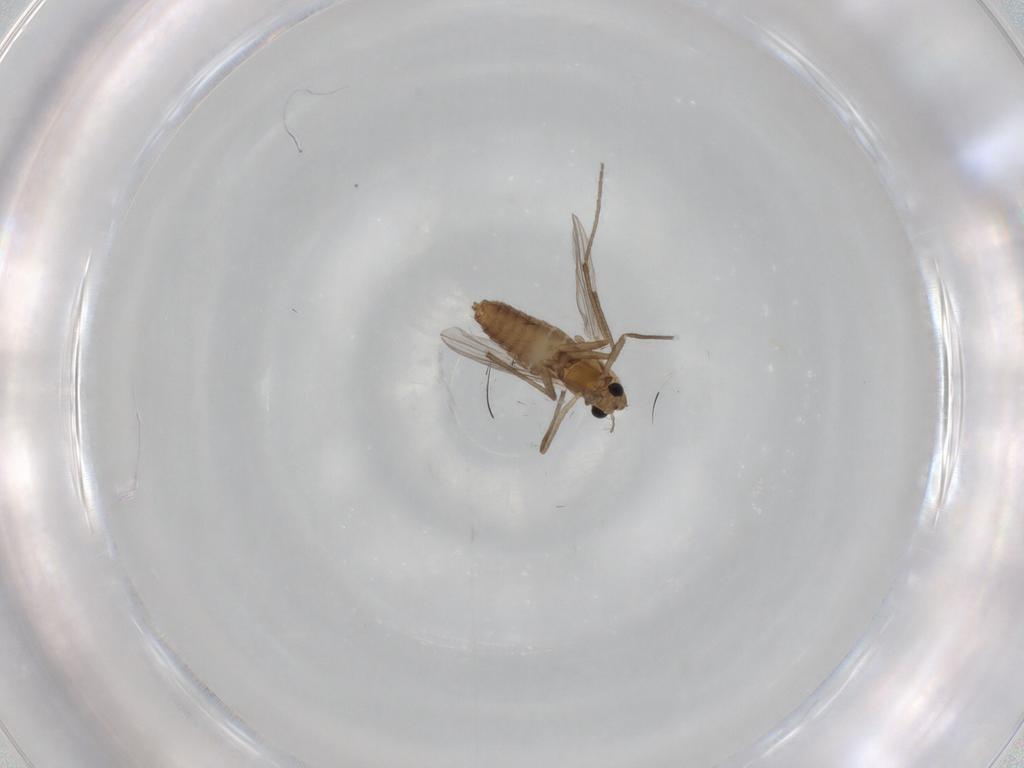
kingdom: Animalia
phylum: Arthropoda
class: Insecta
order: Diptera
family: Chironomidae
